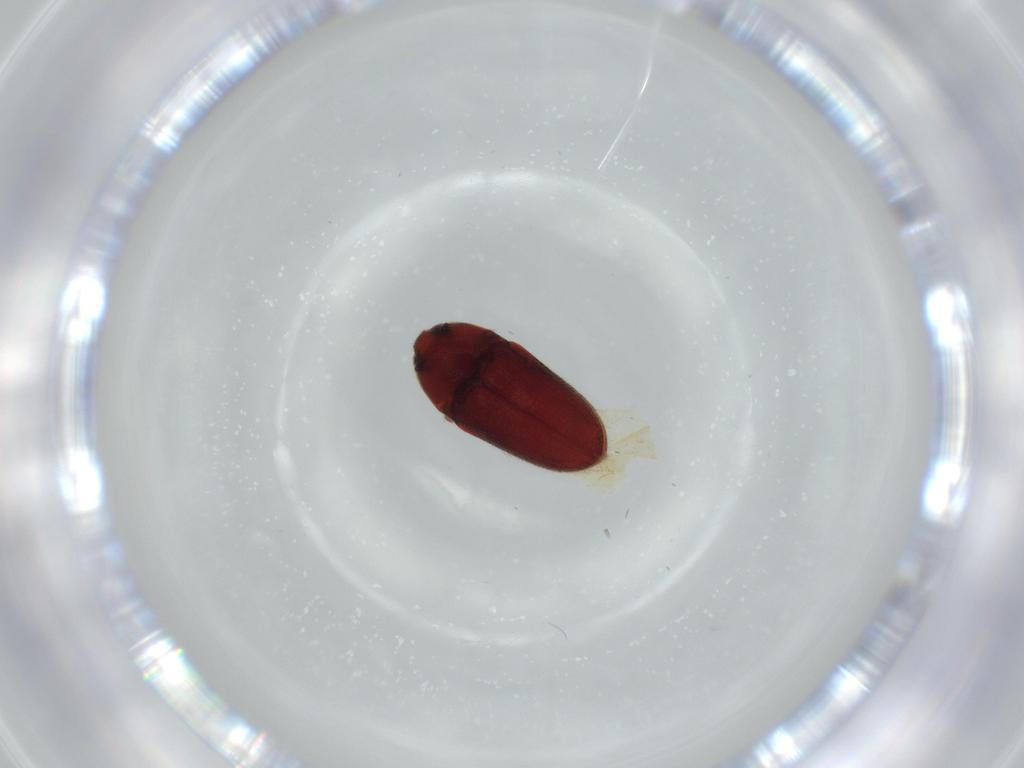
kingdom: Animalia
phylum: Arthropoda
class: Insecta
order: Coleoptera
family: Throscidae
